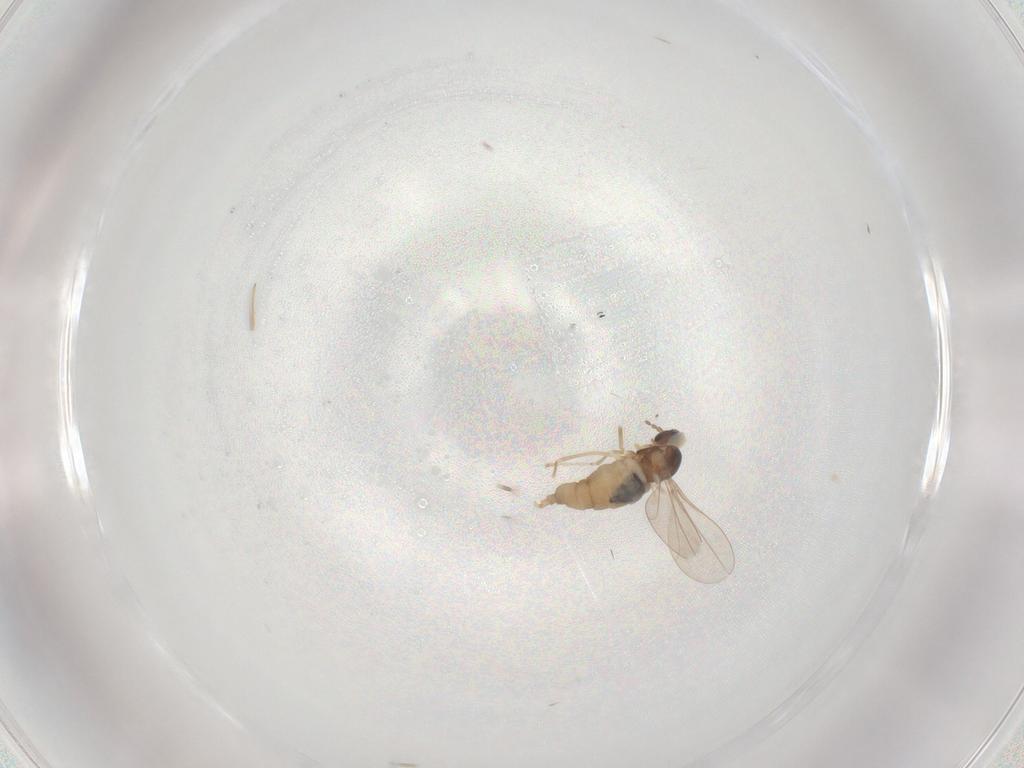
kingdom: Animalia
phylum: Arthropoda
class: Insecta
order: Diptera
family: Cecidomyiidae
